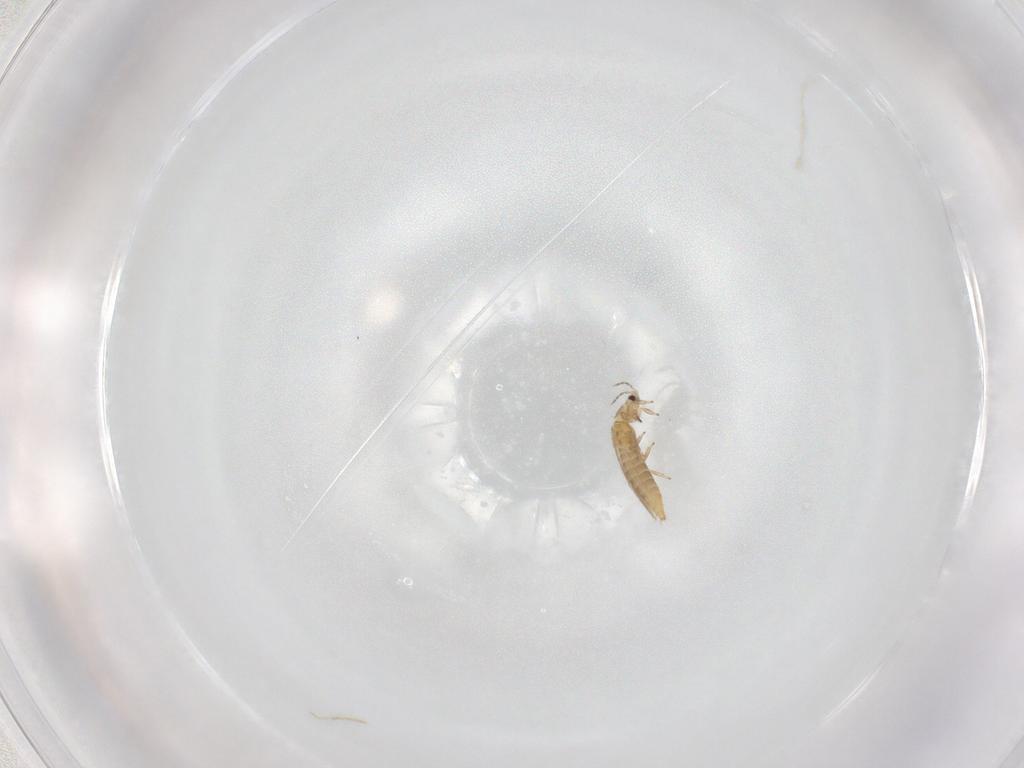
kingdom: Animalia
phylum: Arthropoda
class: Insecta
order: Thysanoptera
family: Thripidae
